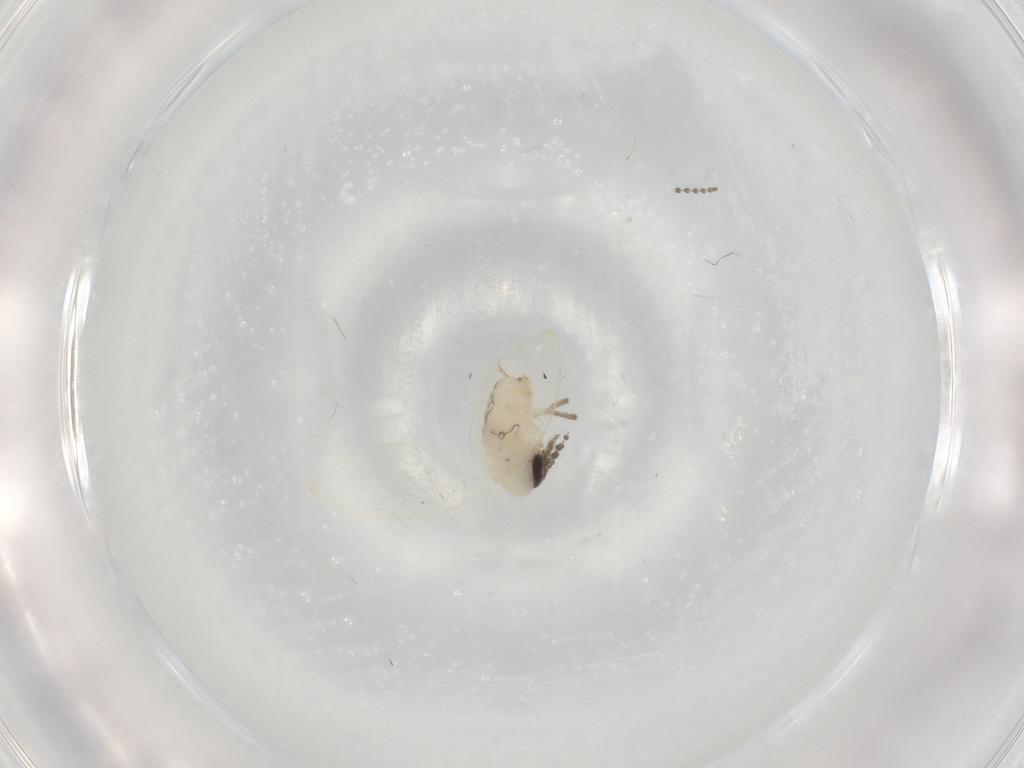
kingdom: Animalia
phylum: Arthropoda
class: Insecta
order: Diptera
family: Psychodidae
